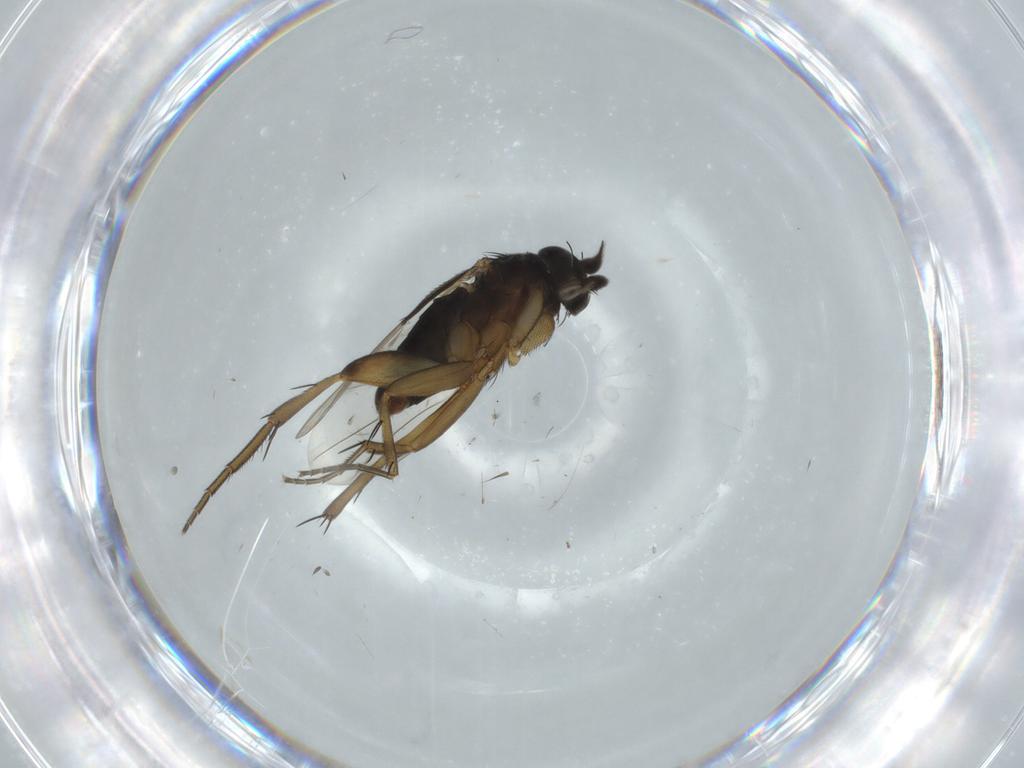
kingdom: Animalia
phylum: Arthropoda
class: Insecta
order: Diptera
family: Phoridae
